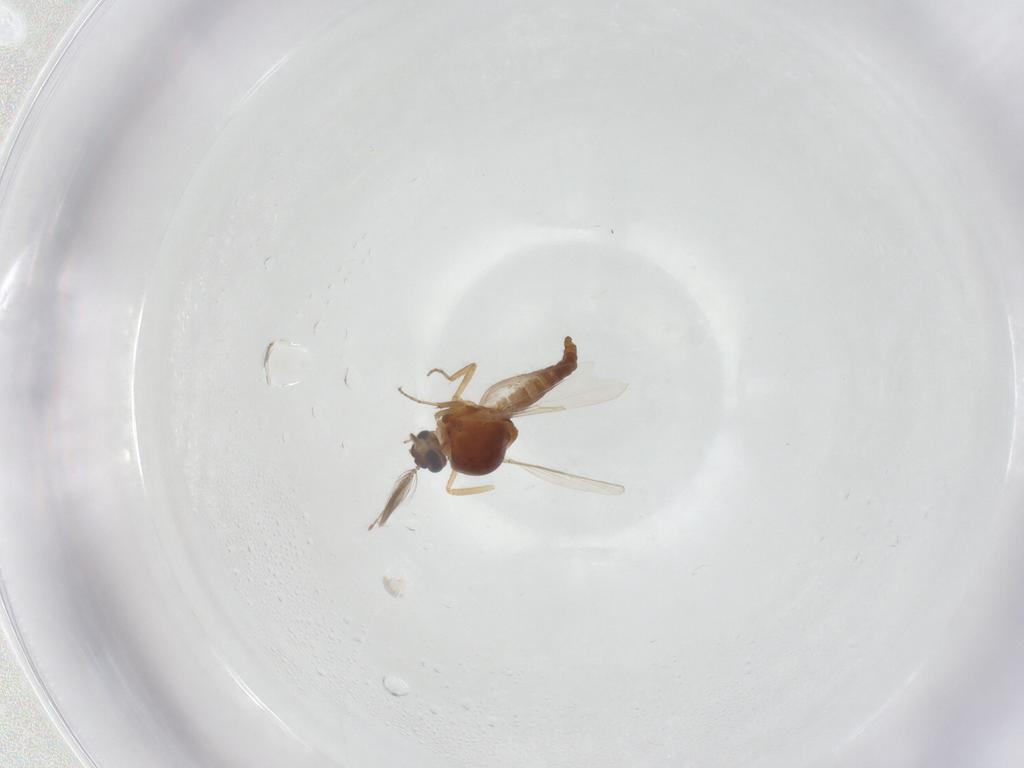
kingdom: Animalia
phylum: Arthropoda
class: Insecta
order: Diptera
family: Ceratopogonidae
